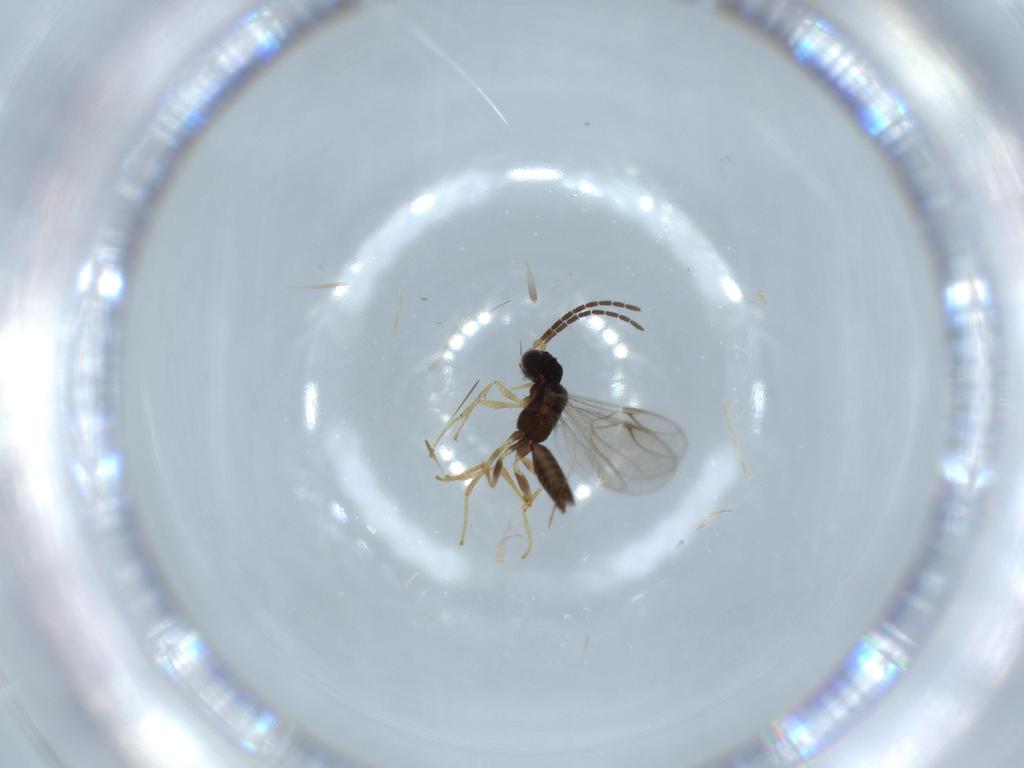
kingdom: Animalia
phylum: Arthropoda
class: Insecta
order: Hymenoptera
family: Dryinidae
